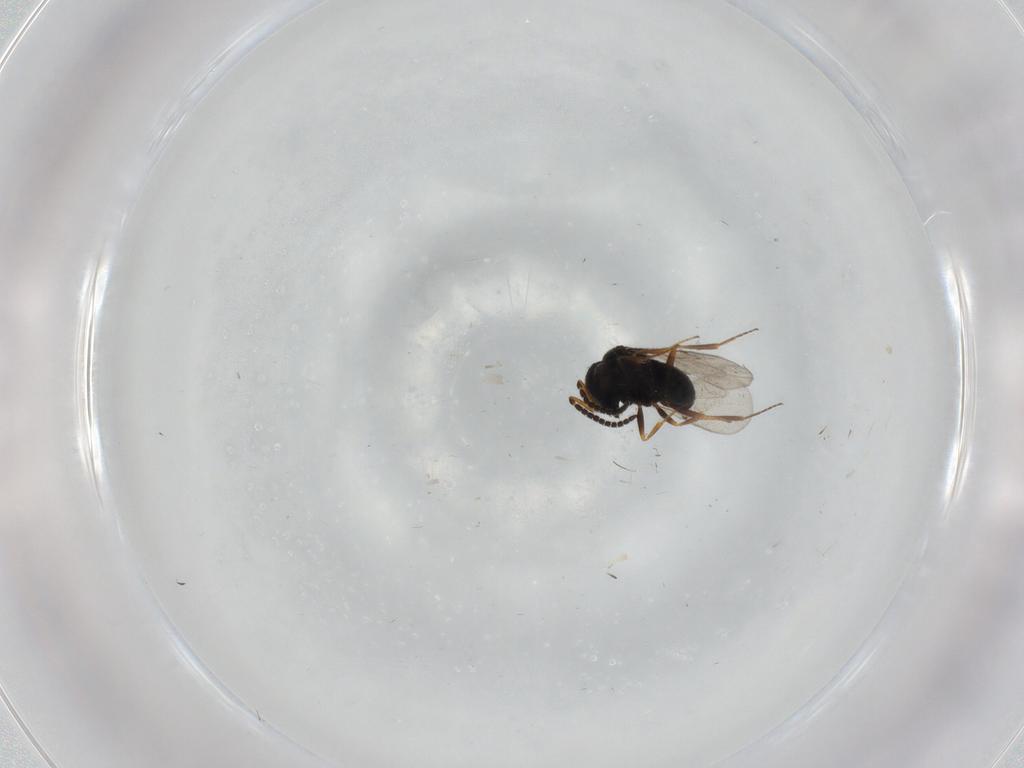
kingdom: Animalia
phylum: Arthropoda
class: Insecta
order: Hymenoptera
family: Scelionidae
